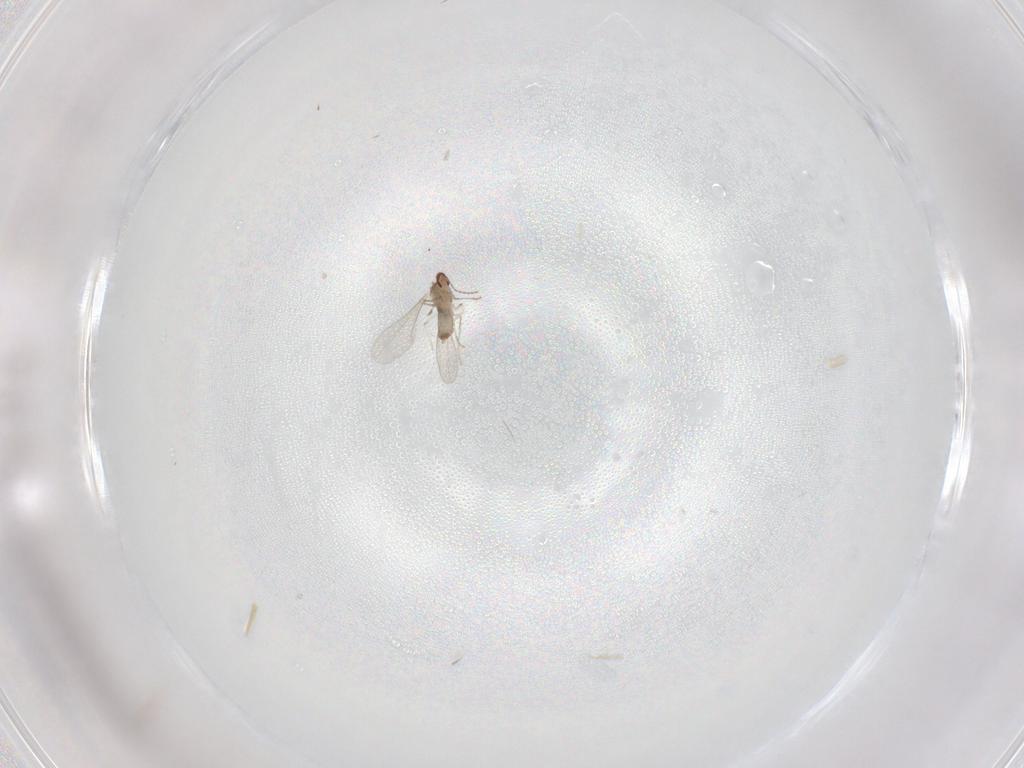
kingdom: Animalia
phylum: Arthropoda
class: Insecta
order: Diptera
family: Cecidomyiidae
